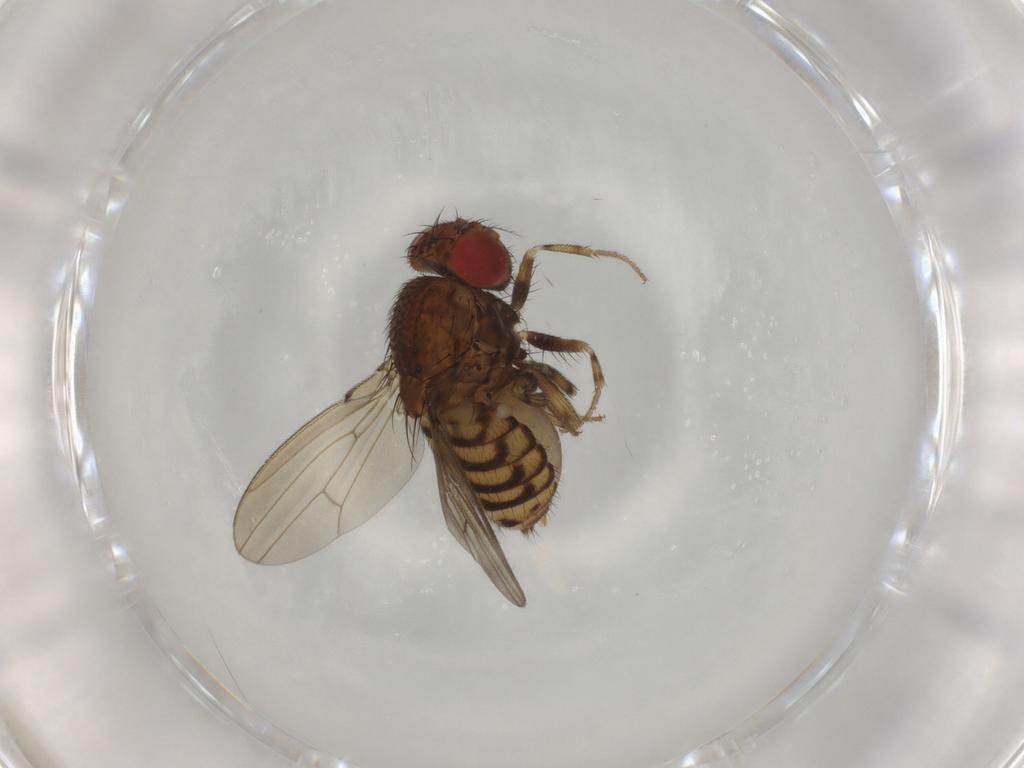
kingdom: Animalia
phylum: Arthropoda
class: Insecta
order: Diptera
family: Drosophilidae
